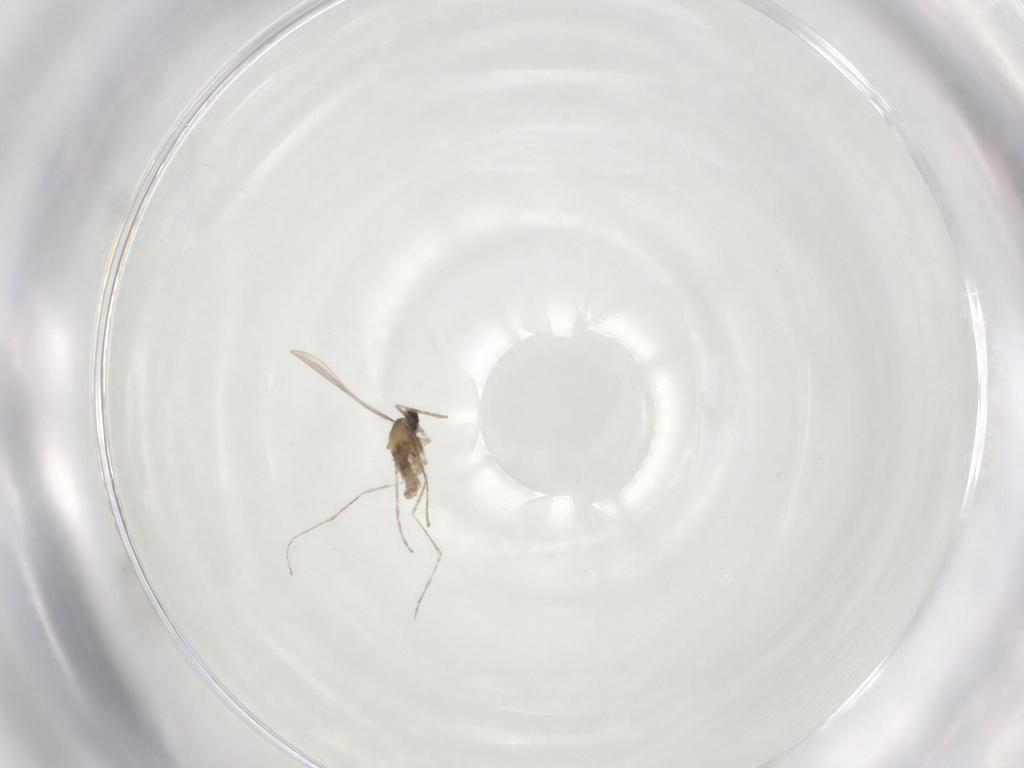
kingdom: Animalia
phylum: Arthropoda
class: Insecta
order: Diptera
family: Cecidomyiidae
